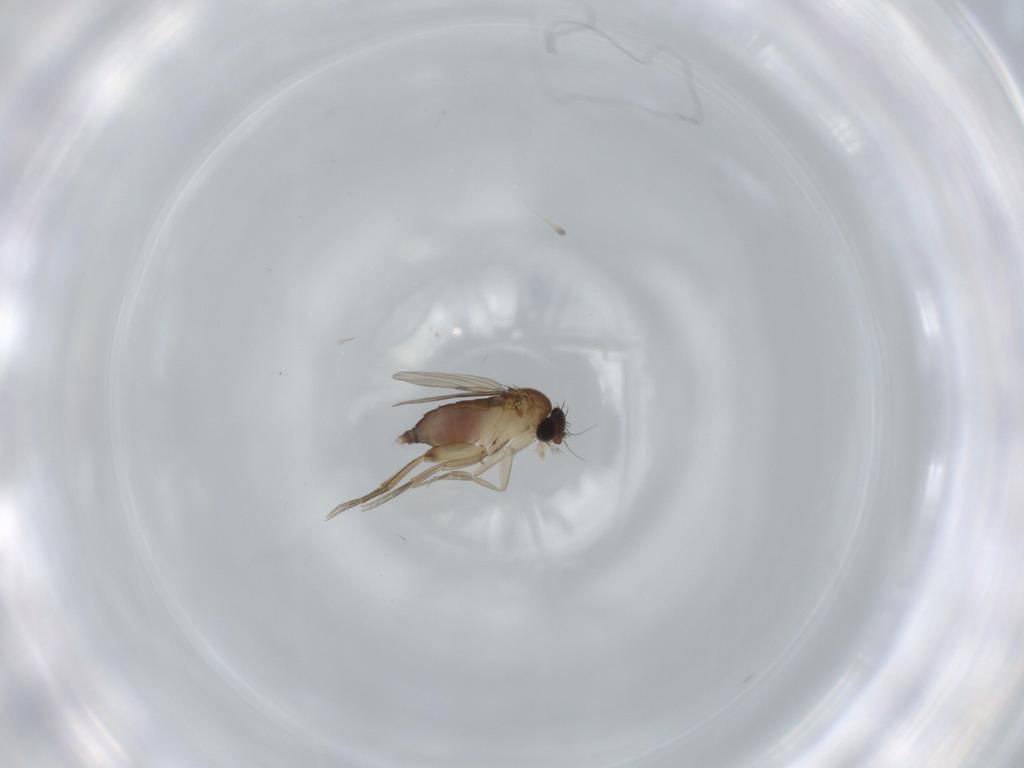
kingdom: Animalia
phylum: Arthropoda
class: Insecta
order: Diptera
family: Phoridae
